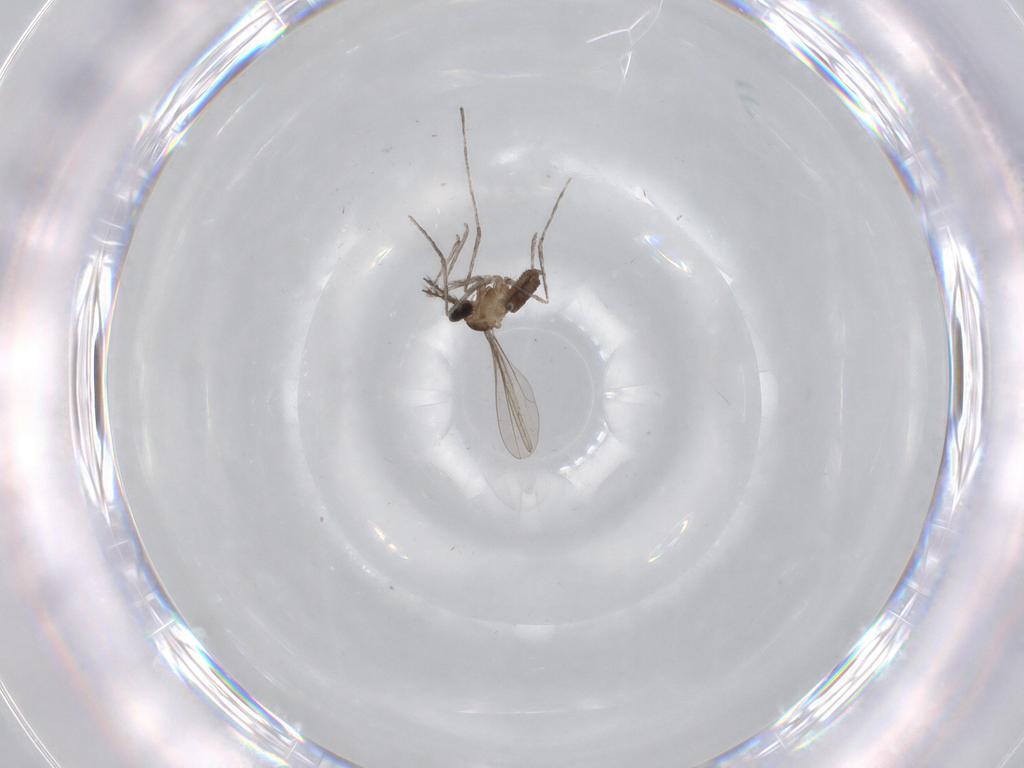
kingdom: Animalia
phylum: Arthropoda
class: Insecta
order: Diptera
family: Cecidomyiidae
